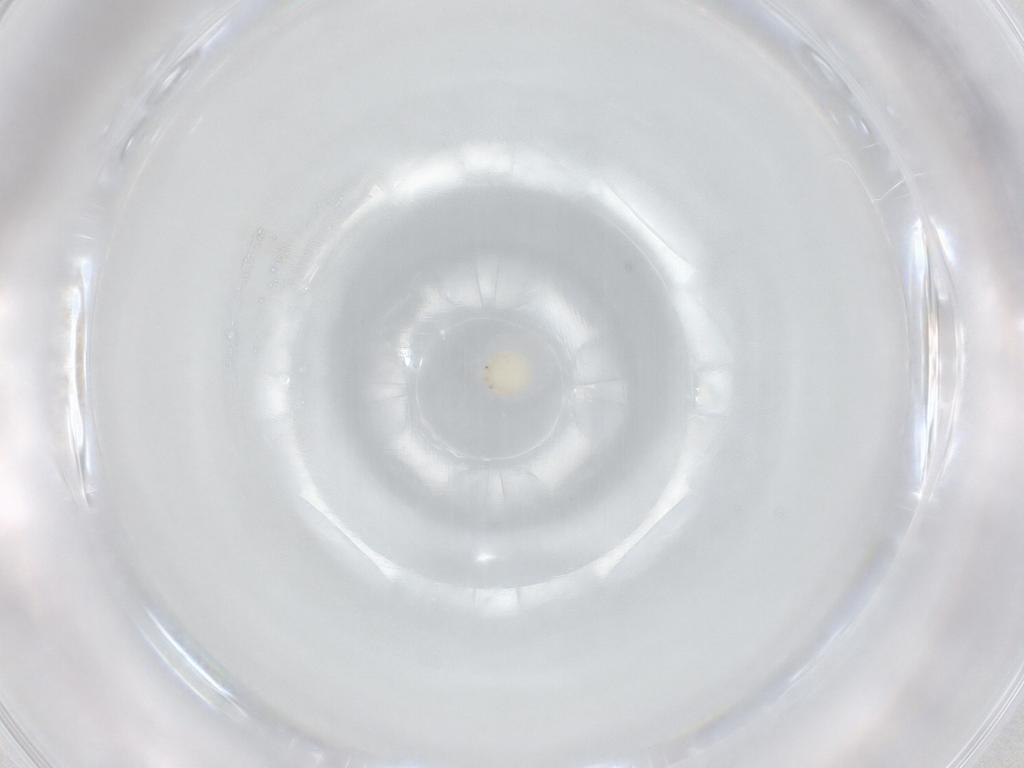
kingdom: Animalia
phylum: Arthropoda
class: Arachnida
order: Trombidiformes
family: Arrenuridae
